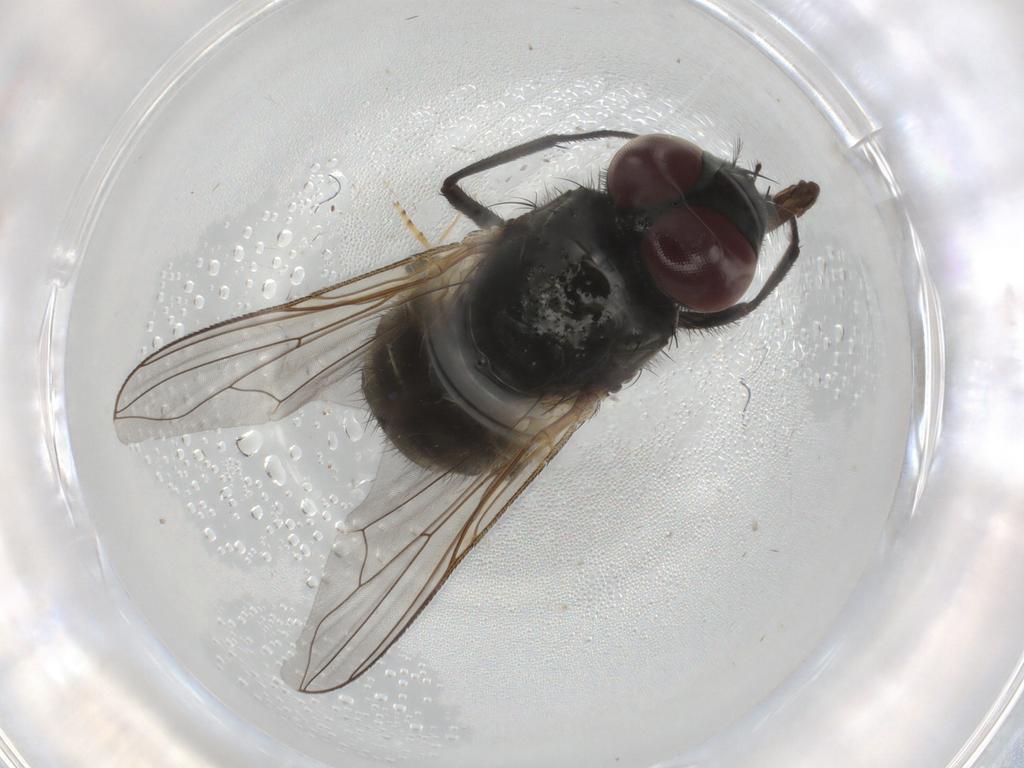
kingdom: Animalia
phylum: Arthropoda
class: Insecta
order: Diptera
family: Muscidae
